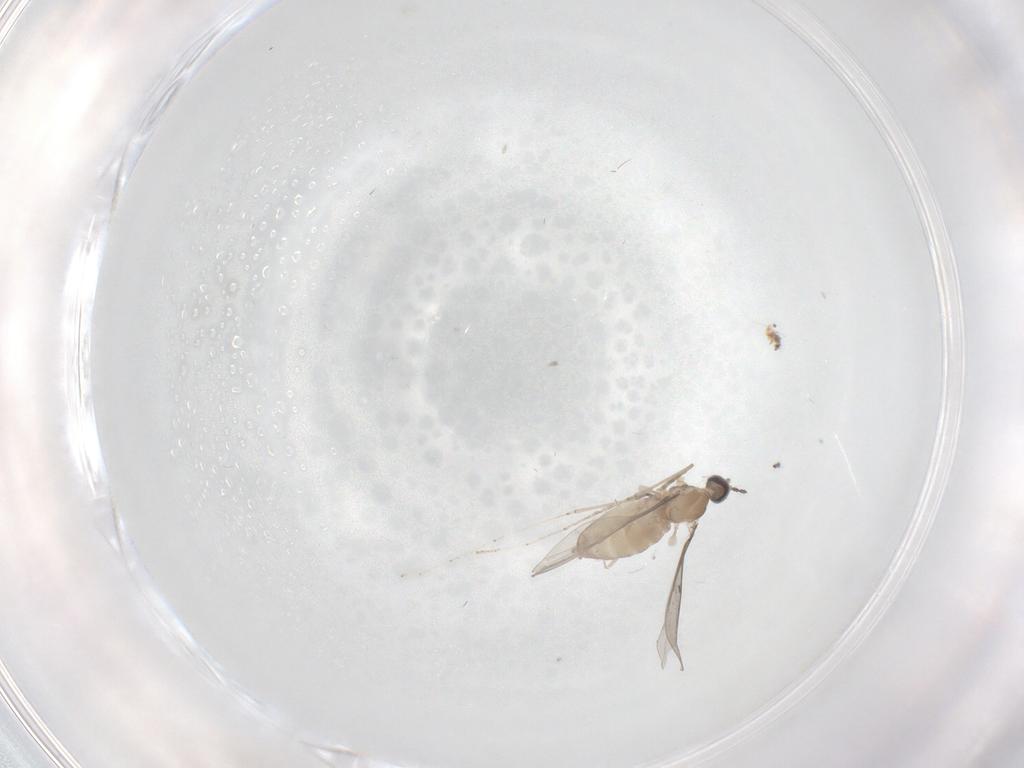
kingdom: Animalia
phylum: Arthropoda
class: Insecta
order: Diptera
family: Cecidomyiidae
